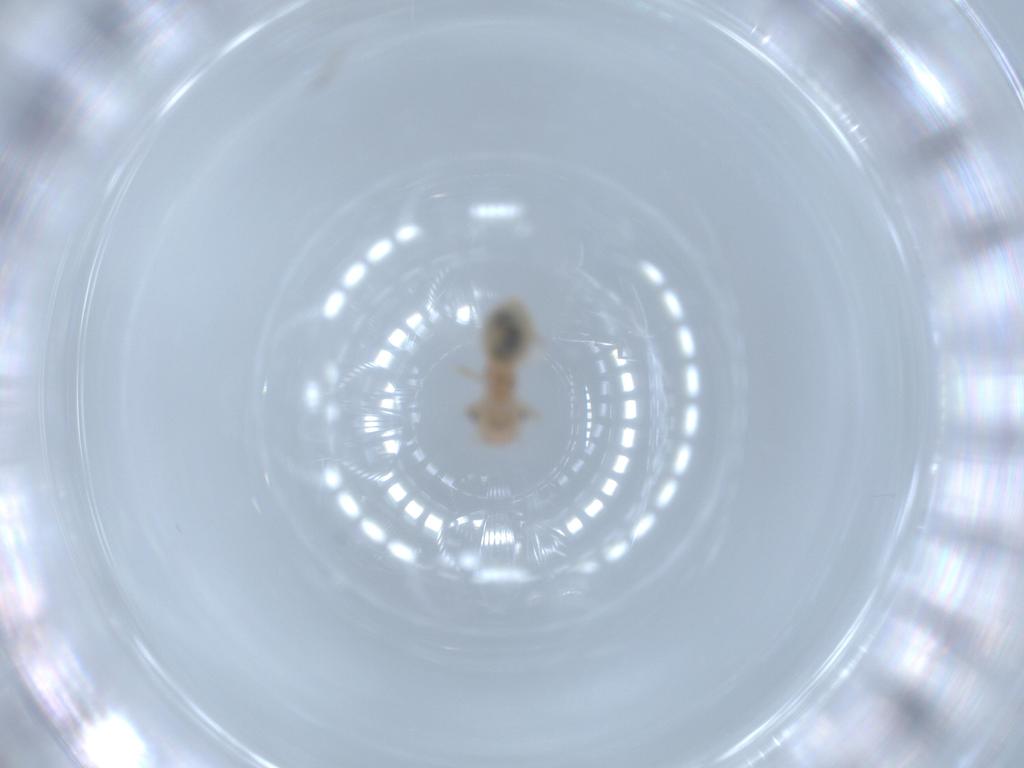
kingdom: Animalia
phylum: Arthropoda
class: Insecta
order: Psocodea
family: Amphipsocidae
